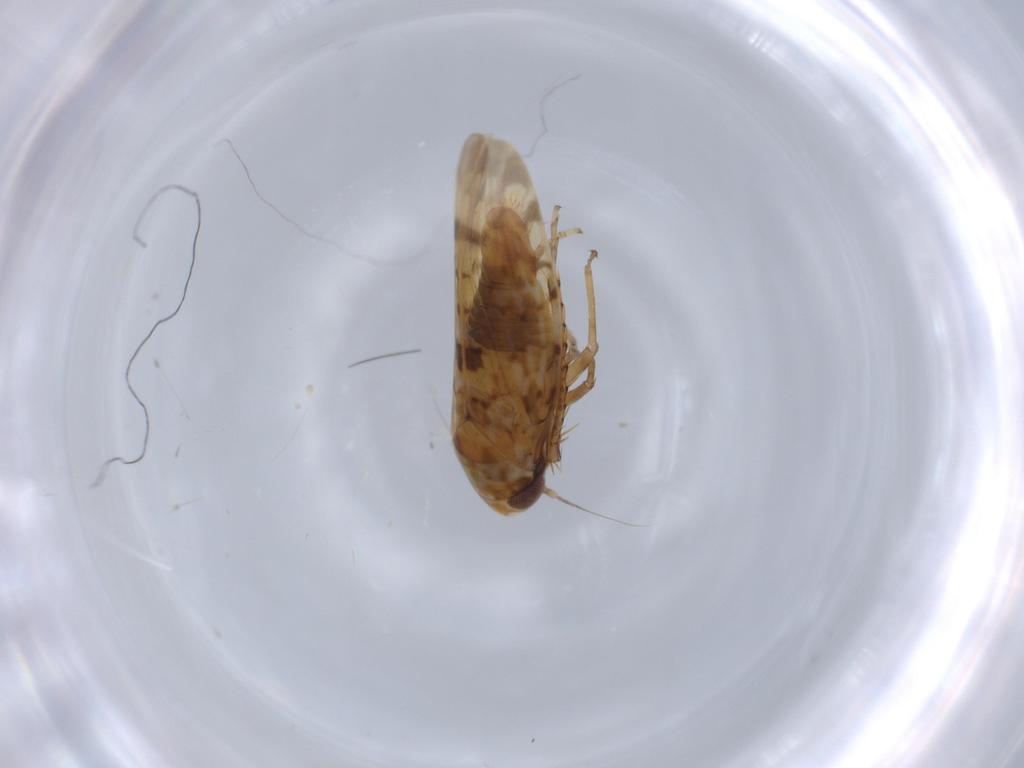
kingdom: Animalia
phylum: Arthropoda
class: Insecta
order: Hemiptera
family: Cicadellidae
